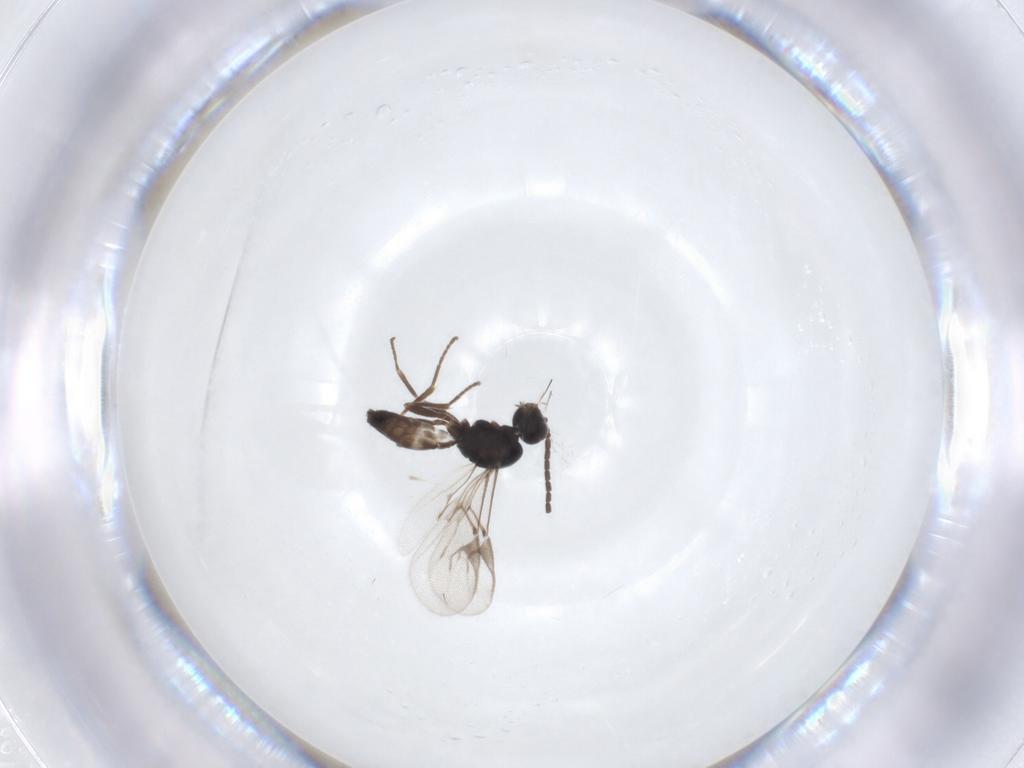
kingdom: Animalia
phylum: Arthropoda
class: Insecta
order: Hymenoptera
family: Braconidae
